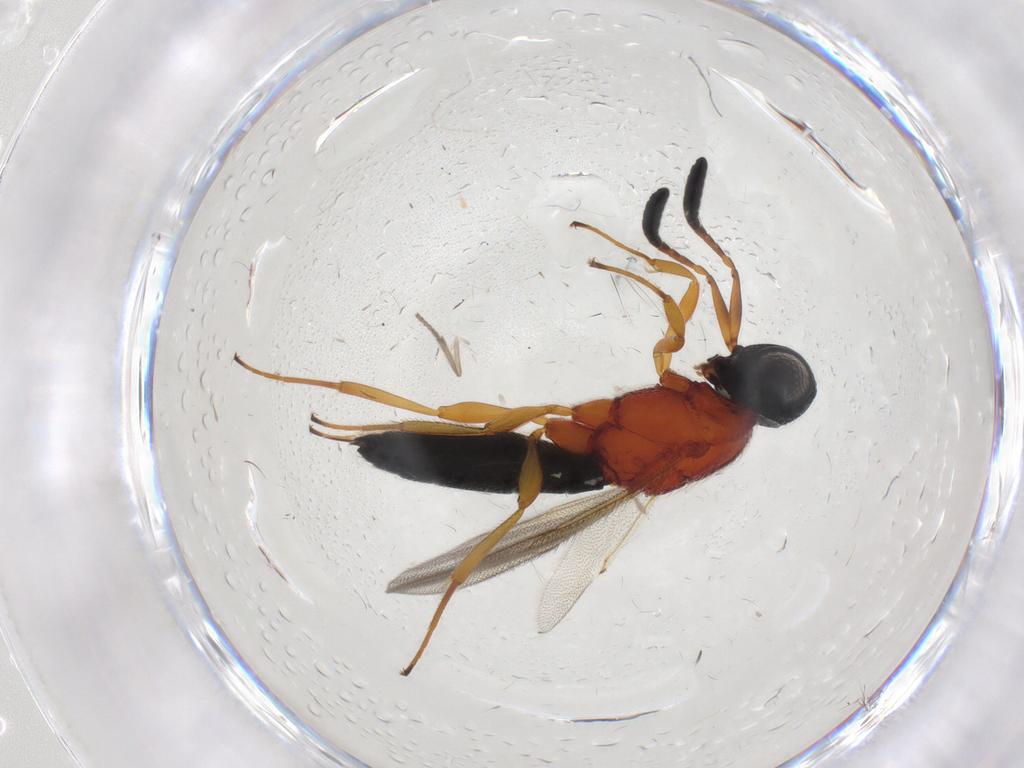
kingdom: Animalia
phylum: Arthropoda
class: Insecta
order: Hymenoptera
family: Scelionidae
